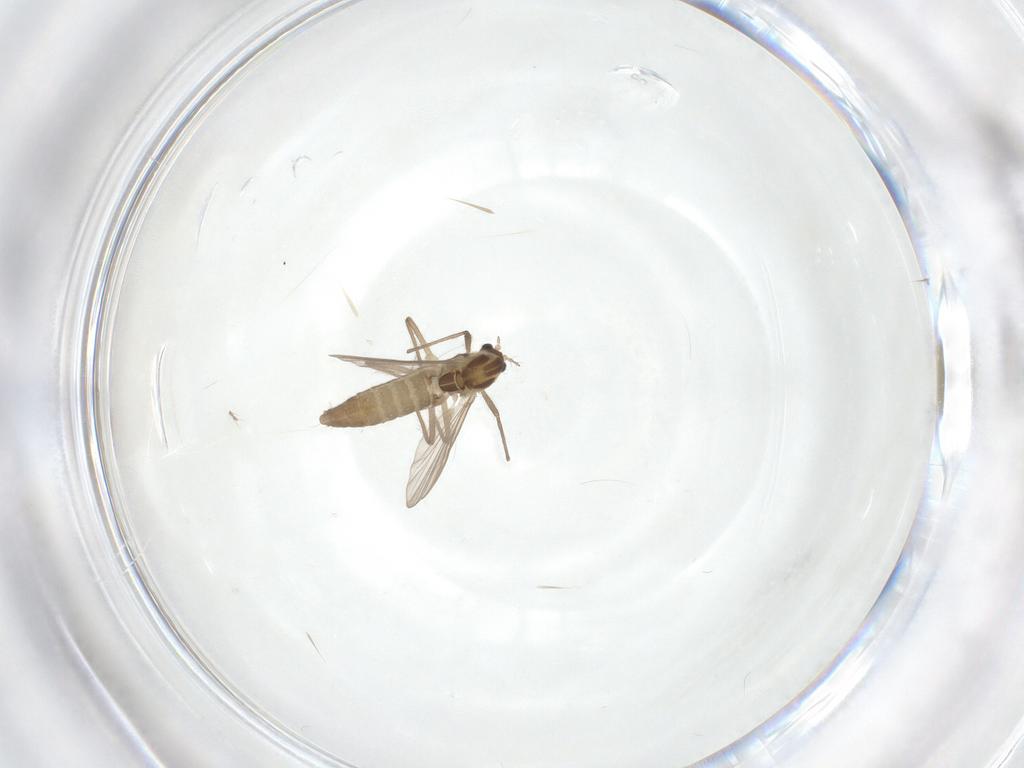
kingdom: Animalia
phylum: Arthropoda
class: Insecta
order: Diptera
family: Chironomidae
